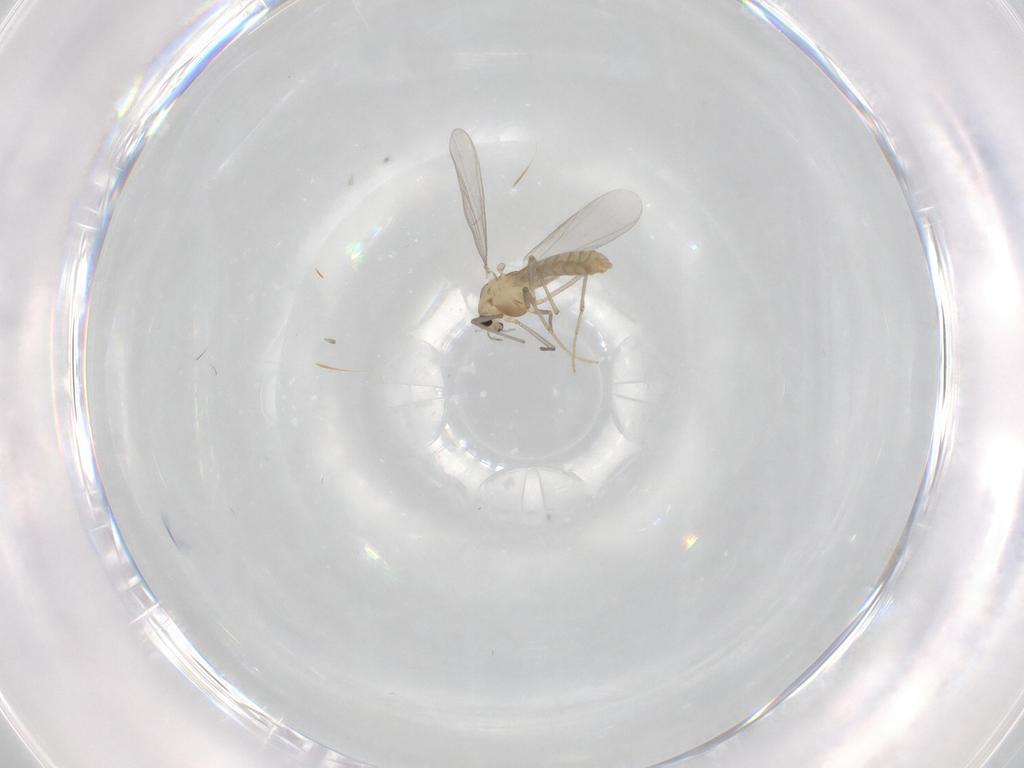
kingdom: Animalia
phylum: Arthropoda
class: Insecta
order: Diptera
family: Chironomidae
